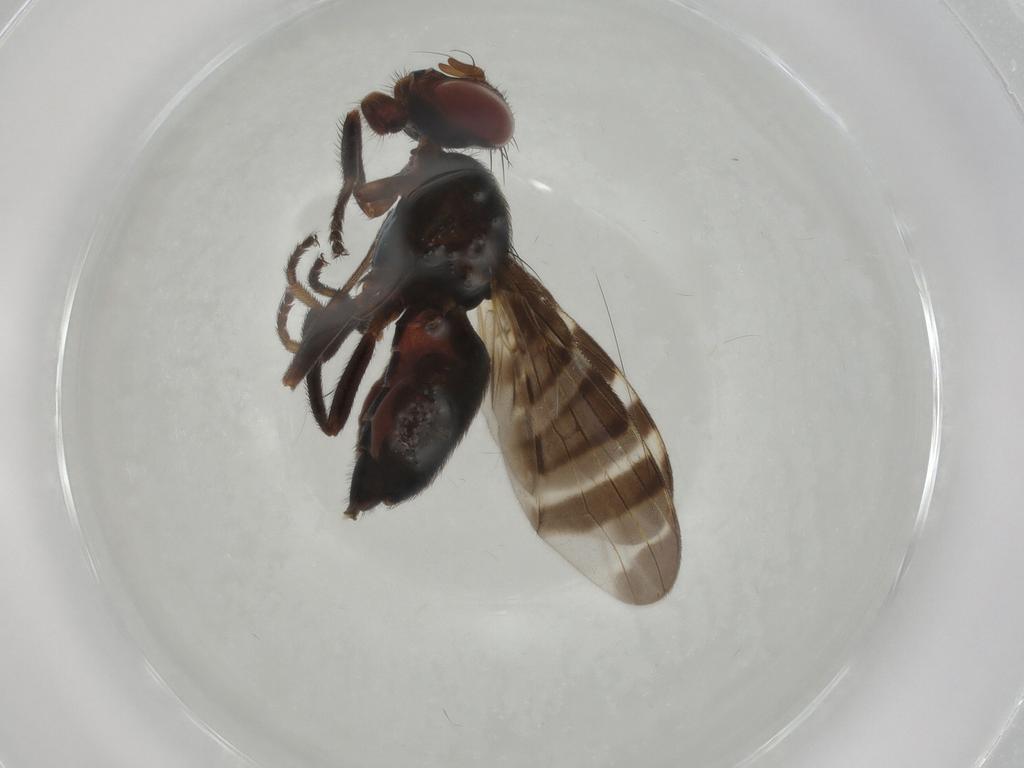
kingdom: Animalia
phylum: Arthropoda
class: Insecta
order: Diptera
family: Platystomatidae
